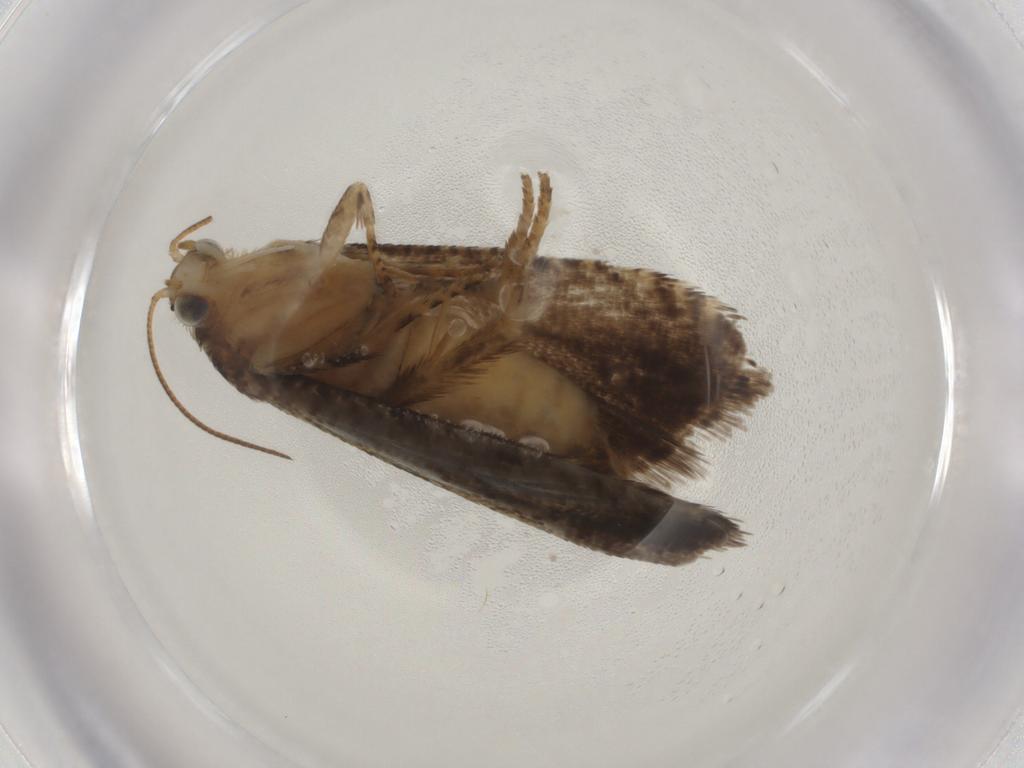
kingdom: Animalia
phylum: Arthropoda
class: Insecta
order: Lepidoptera
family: Tortricidae
